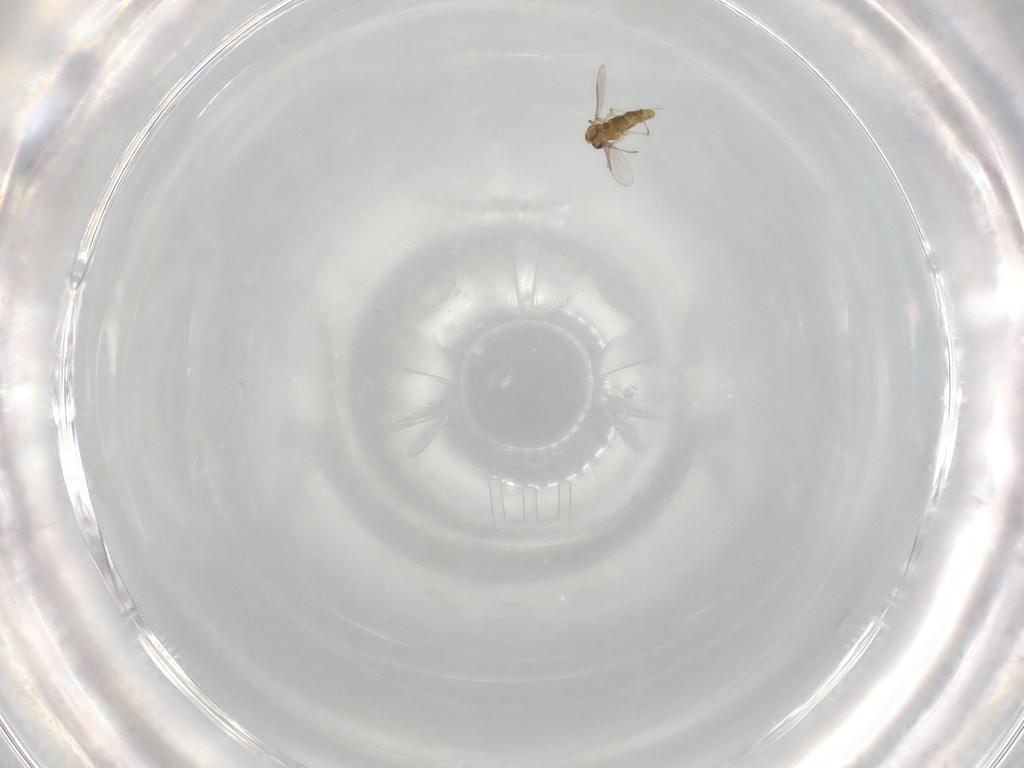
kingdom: Animalia
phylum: Arthropoda
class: Insecta
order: Diptera
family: Chironomidae
